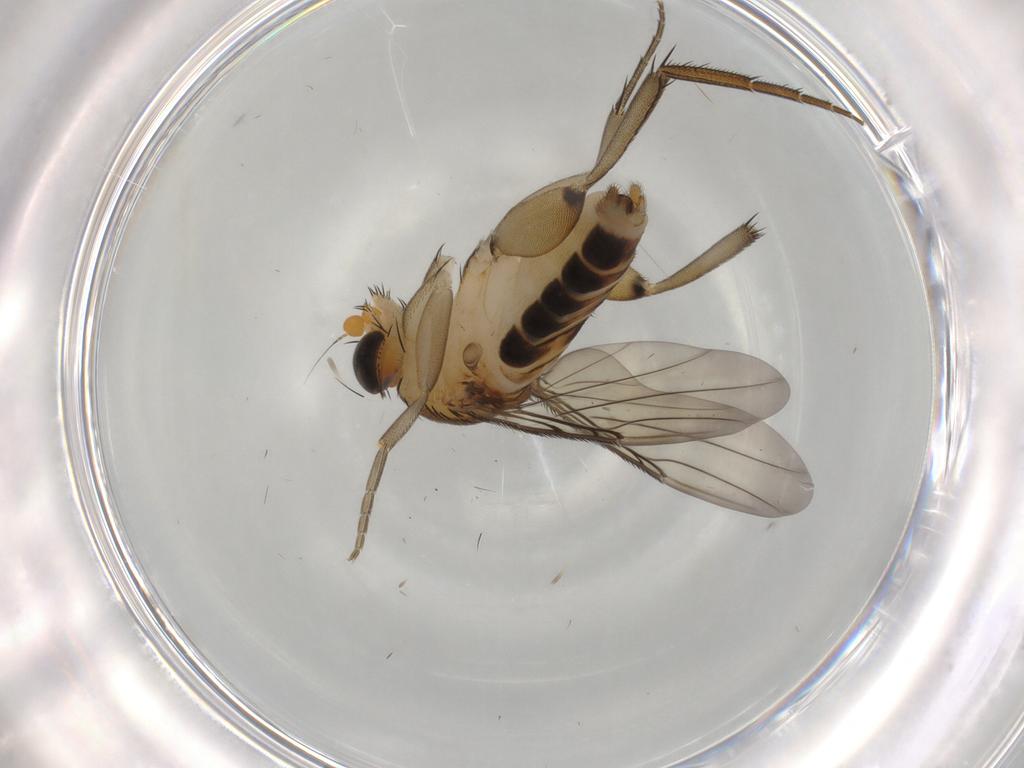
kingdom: Animalia
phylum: Arthropoda
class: Insecta
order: Diptera
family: Phoridae
